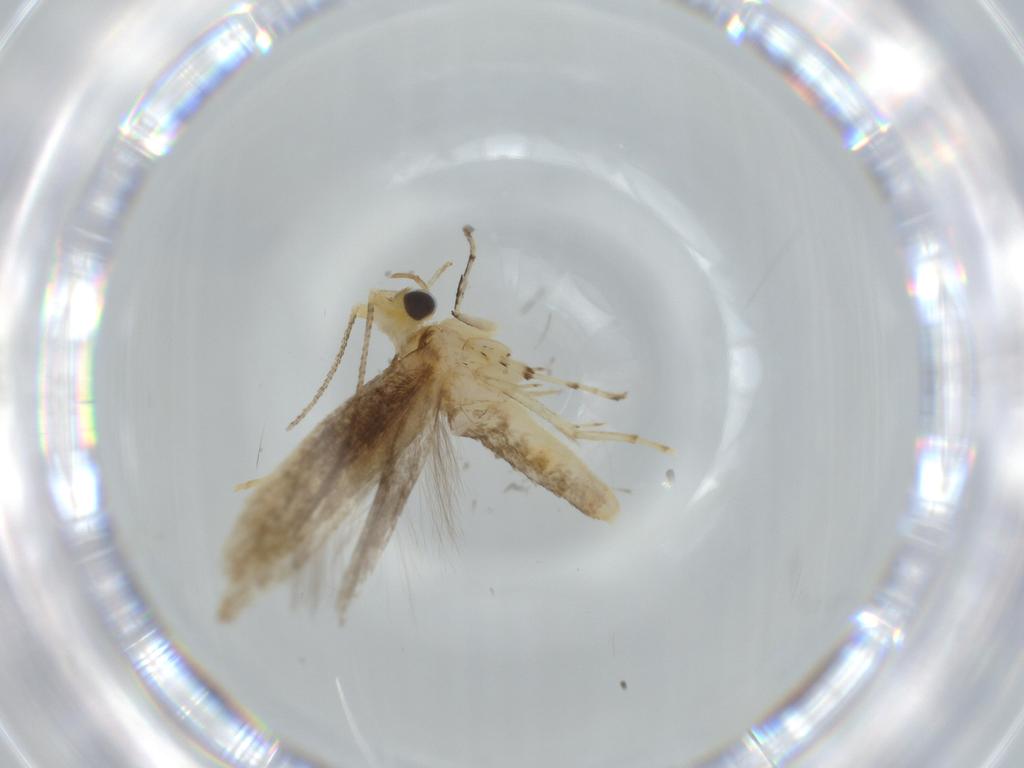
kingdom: Animalia
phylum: Arthropoda
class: Insecta
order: Lepidoptera
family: Argyresthiidae
